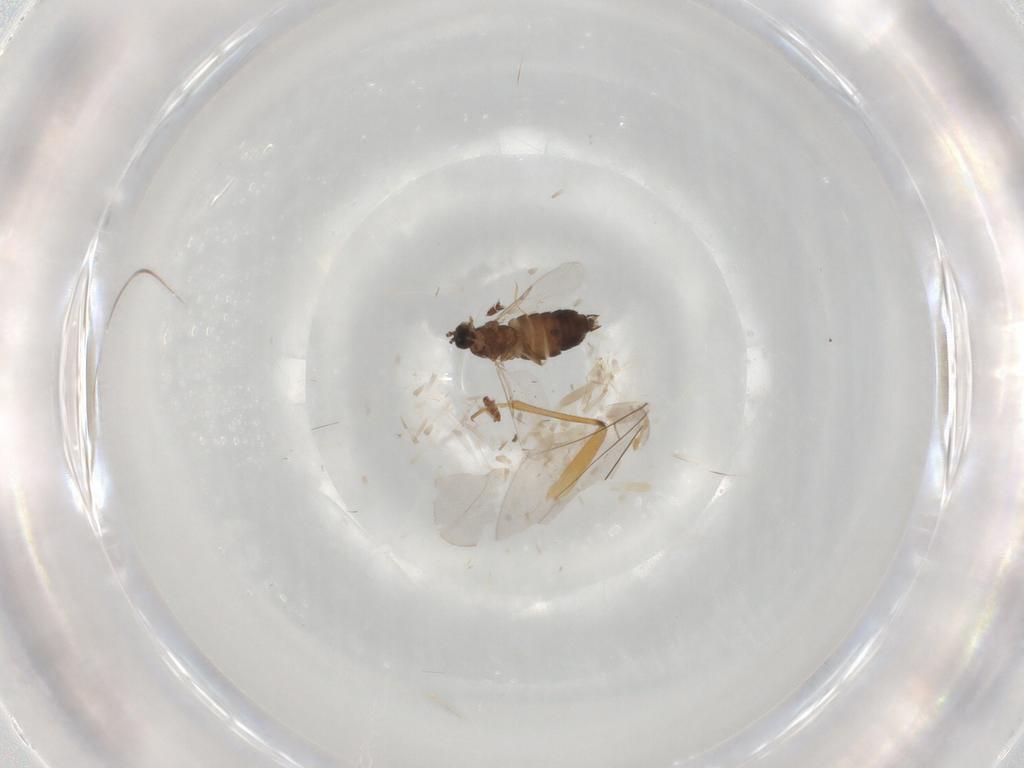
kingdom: Animalia
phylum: Arthropoda
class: Insecta
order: Diptera
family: Scatopsidae
